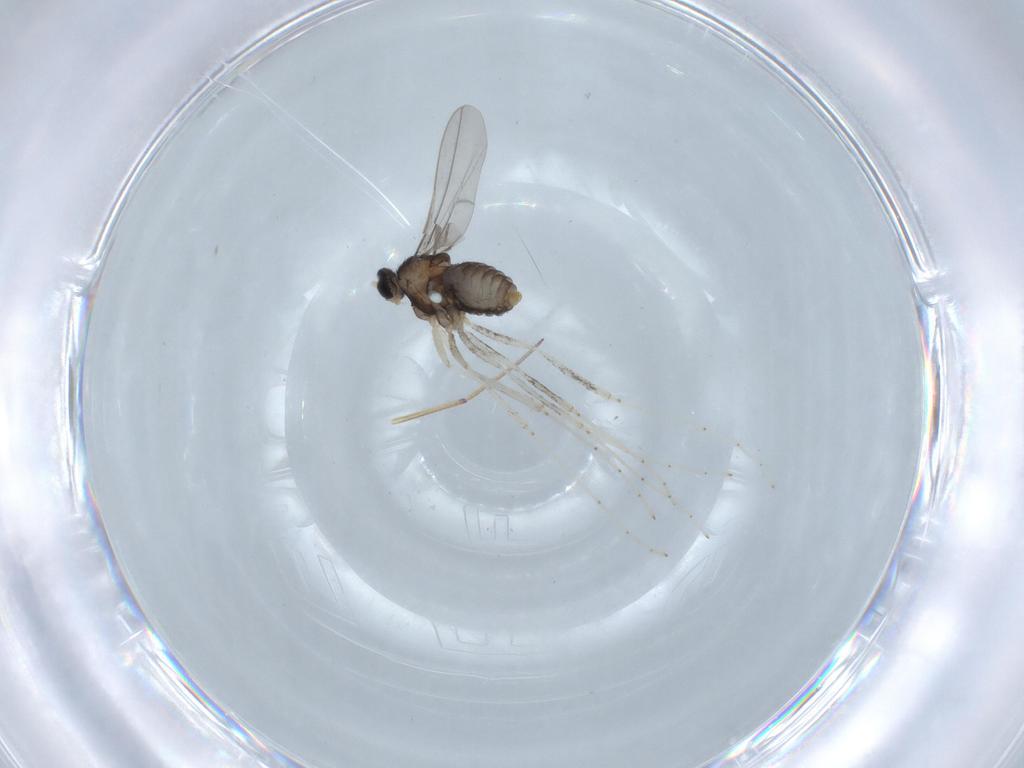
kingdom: Animalia
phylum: Arthropoda
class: Insecta
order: Diptera
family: Cecidomyiidae
